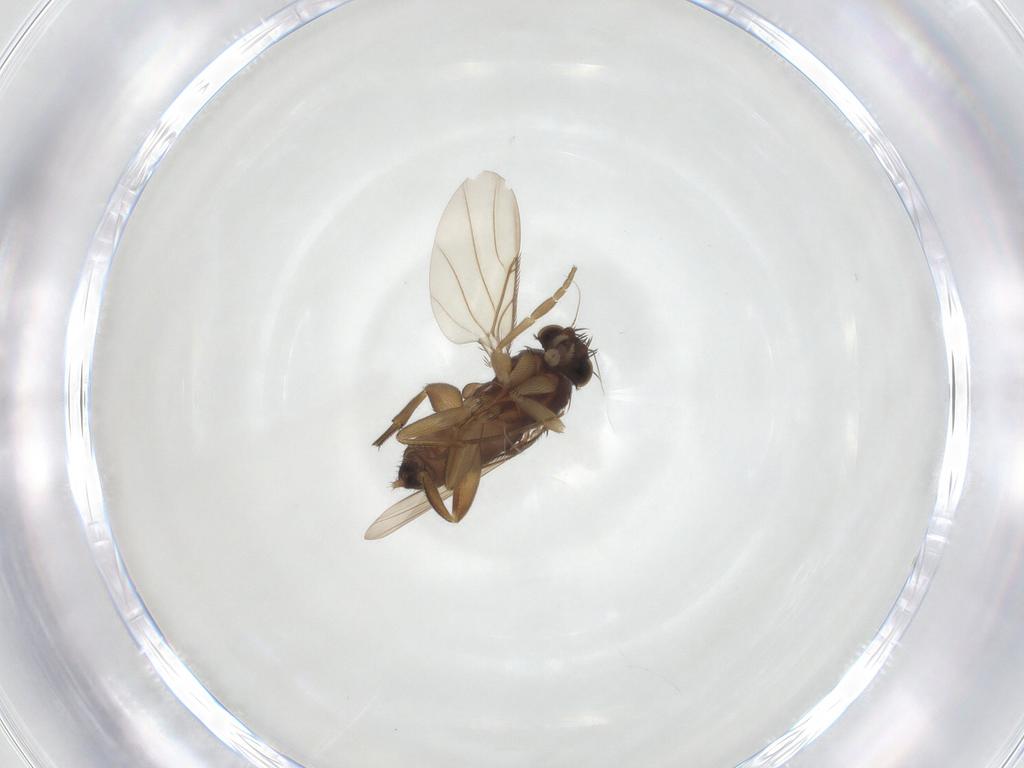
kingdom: Animalia
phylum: Arthropoda
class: Insecta
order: Diptera
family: Phoridae
